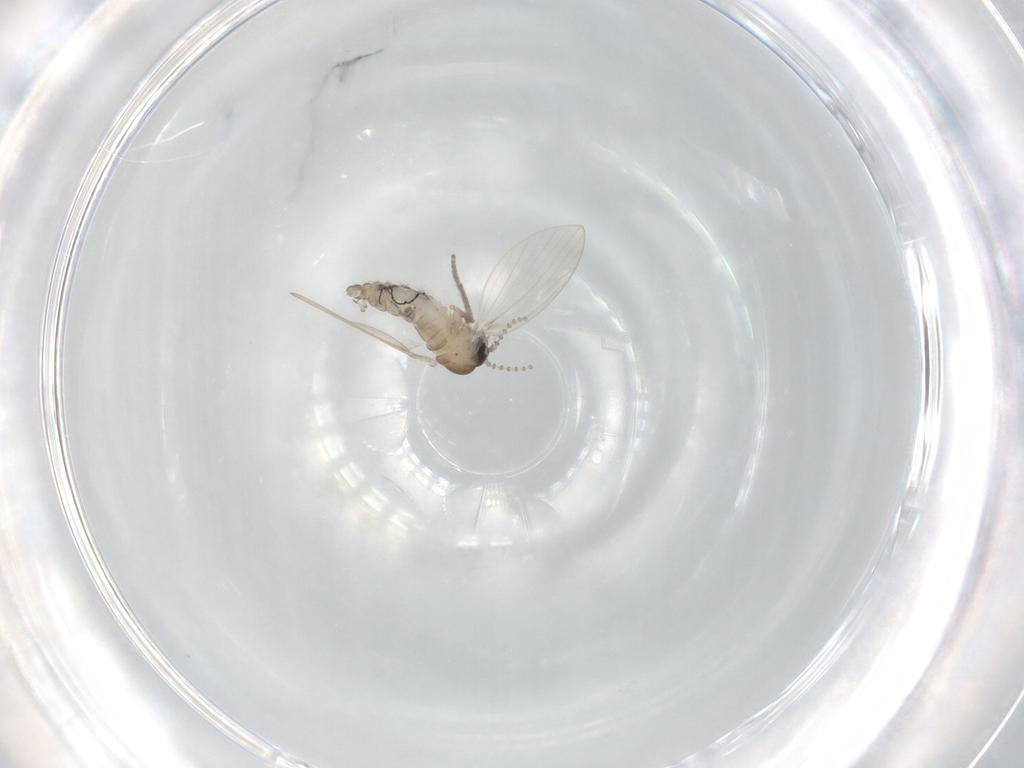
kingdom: Animalia
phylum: Arthropoda
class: Insecta
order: Diptera
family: Psychodidae
